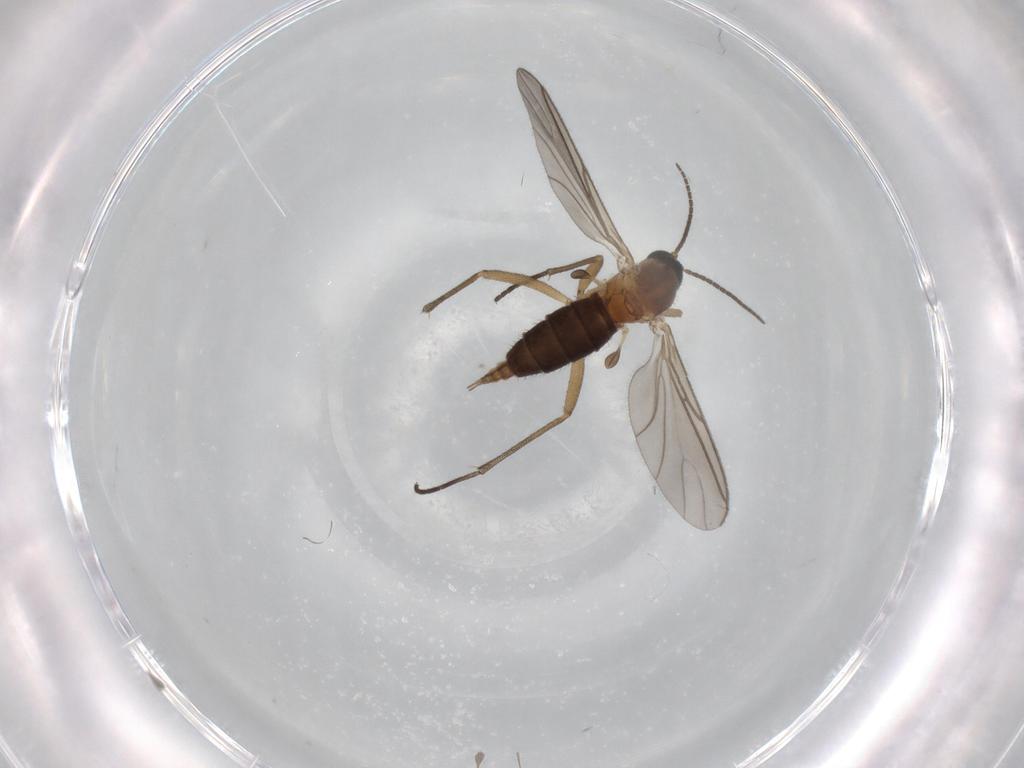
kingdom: Animalia
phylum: Arthropoda
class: Insecta
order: Diptera
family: Sciaridae
